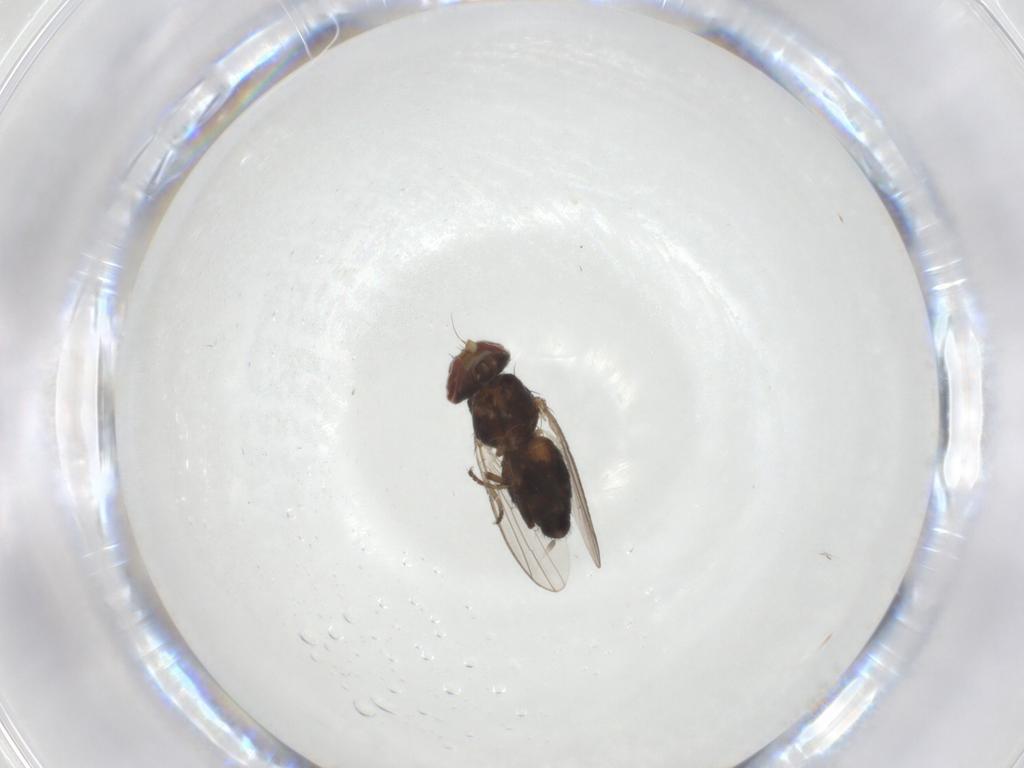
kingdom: Animalia
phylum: Arthropoda
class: Insecta
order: Diptera
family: Heleomyzidae
